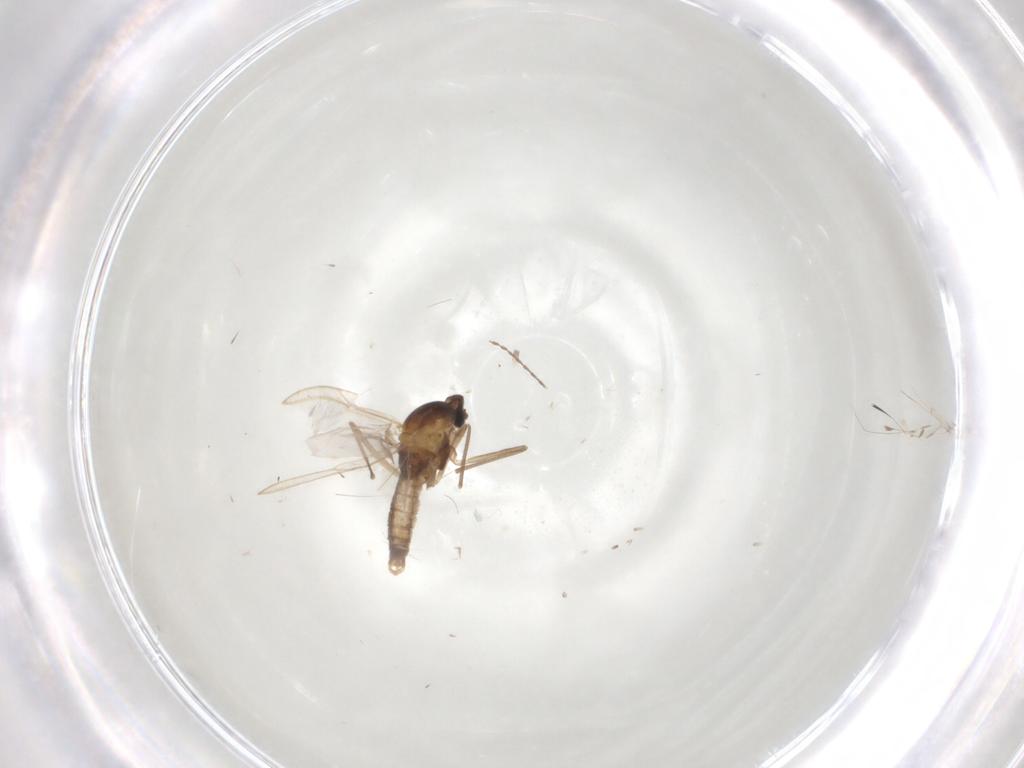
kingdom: Animalia
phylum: Arthropoda
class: Insecta
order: Diptera
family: Cecidomyiidae
